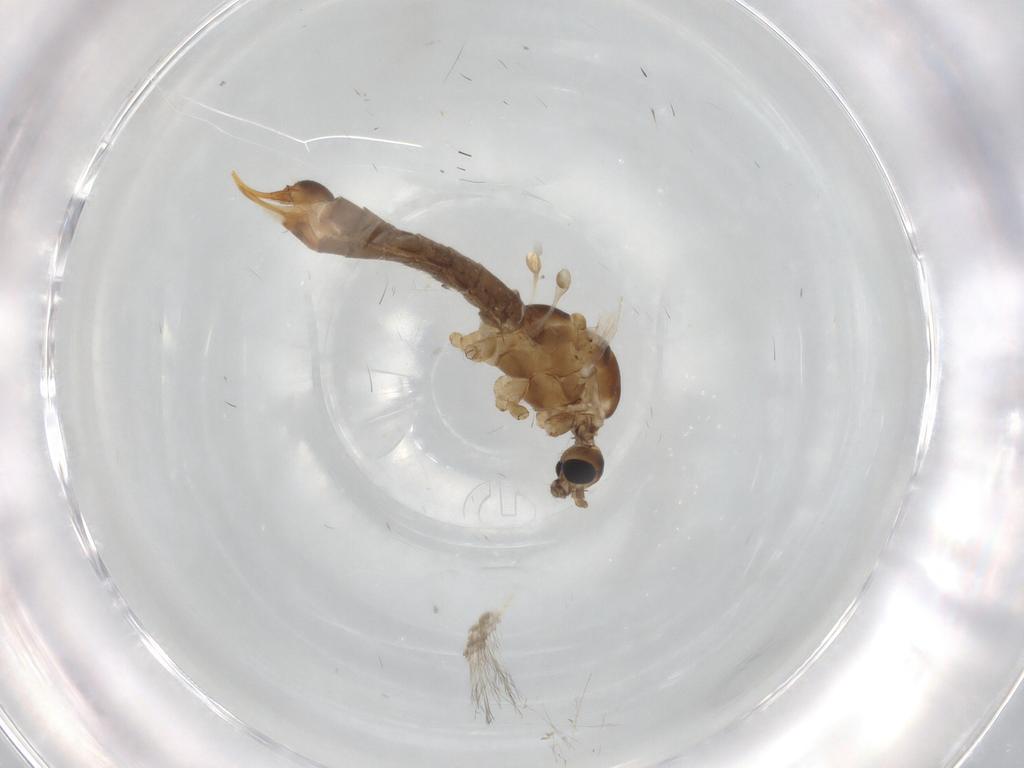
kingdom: Animalia
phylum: Arthropoda
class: Insecta
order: Diptera
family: Limoniidae
